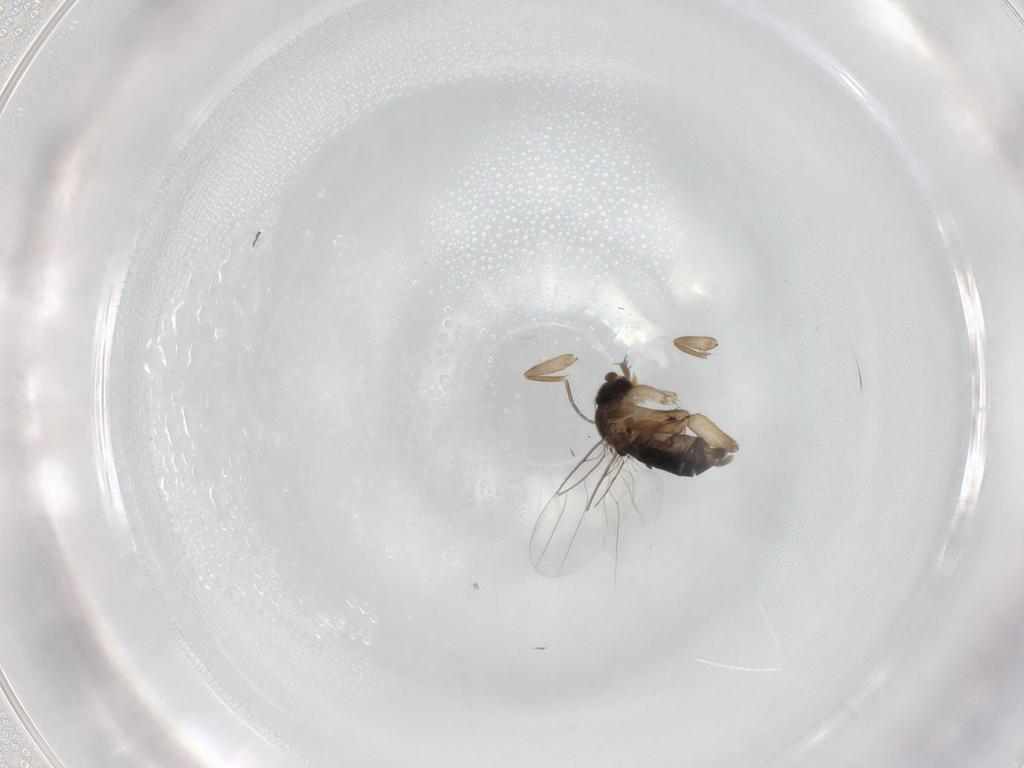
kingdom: Animalia
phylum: Arthropoda
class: Insecta
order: Diptera
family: Phoridae
